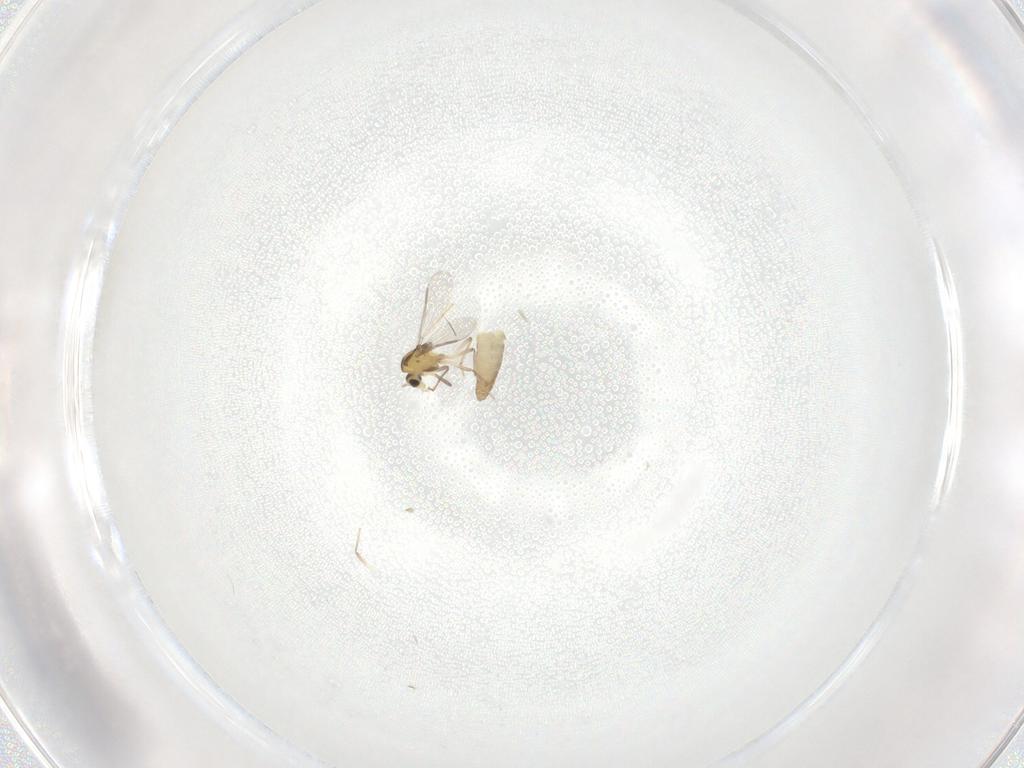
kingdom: Animalia
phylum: Arthropoda
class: Insecta
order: Diptera
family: Chironomidae
